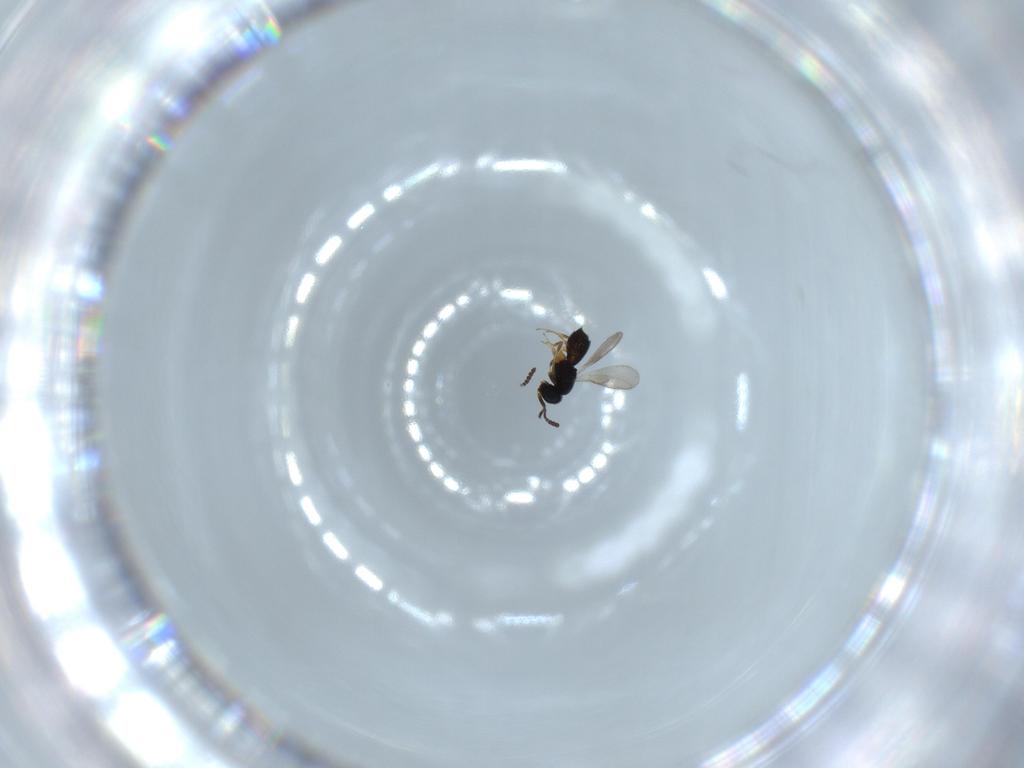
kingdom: Animalia
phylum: Arthropoda
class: Insecta
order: Hymenoptera
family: Scelionidae
